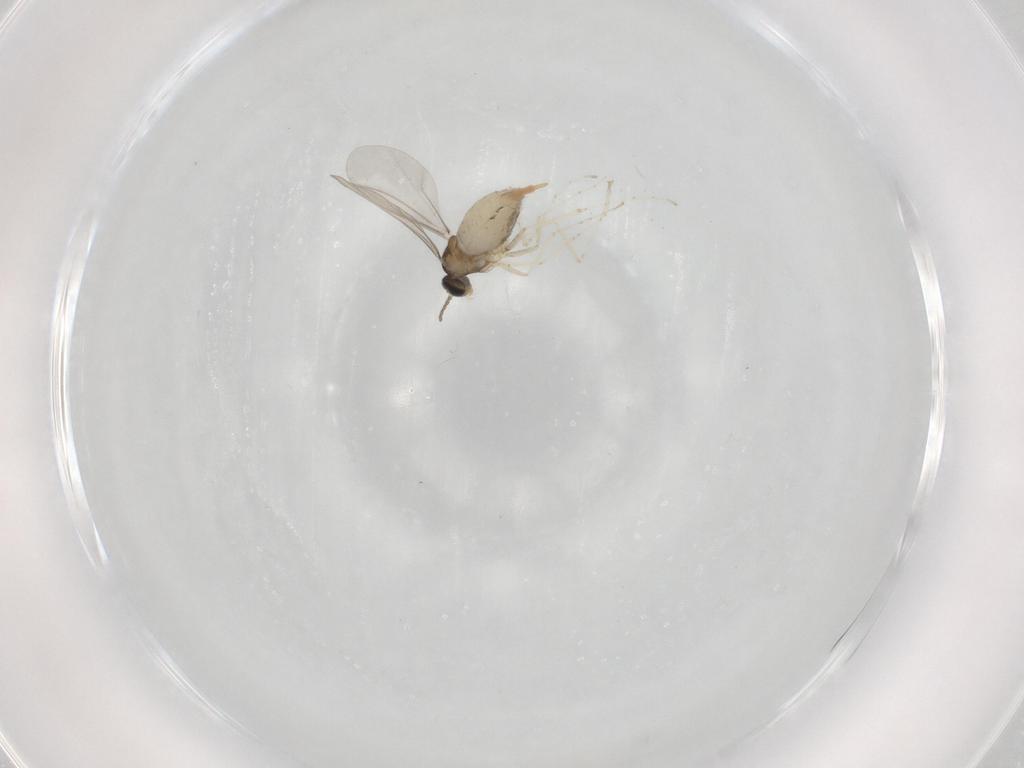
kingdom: Animalia
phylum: Arthropoda
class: Insecta
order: Diptera
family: Cecidomyiidae
